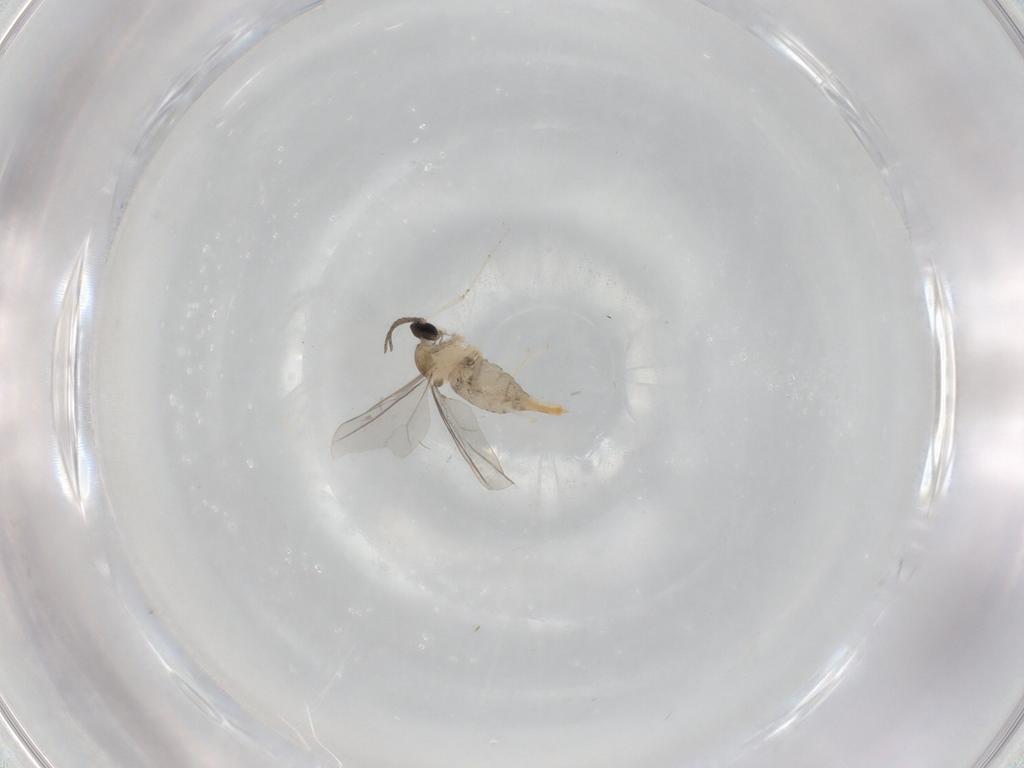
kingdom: Animalia
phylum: Arthropoda
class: Insecta
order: Diptera
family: Cecidomyiidae
